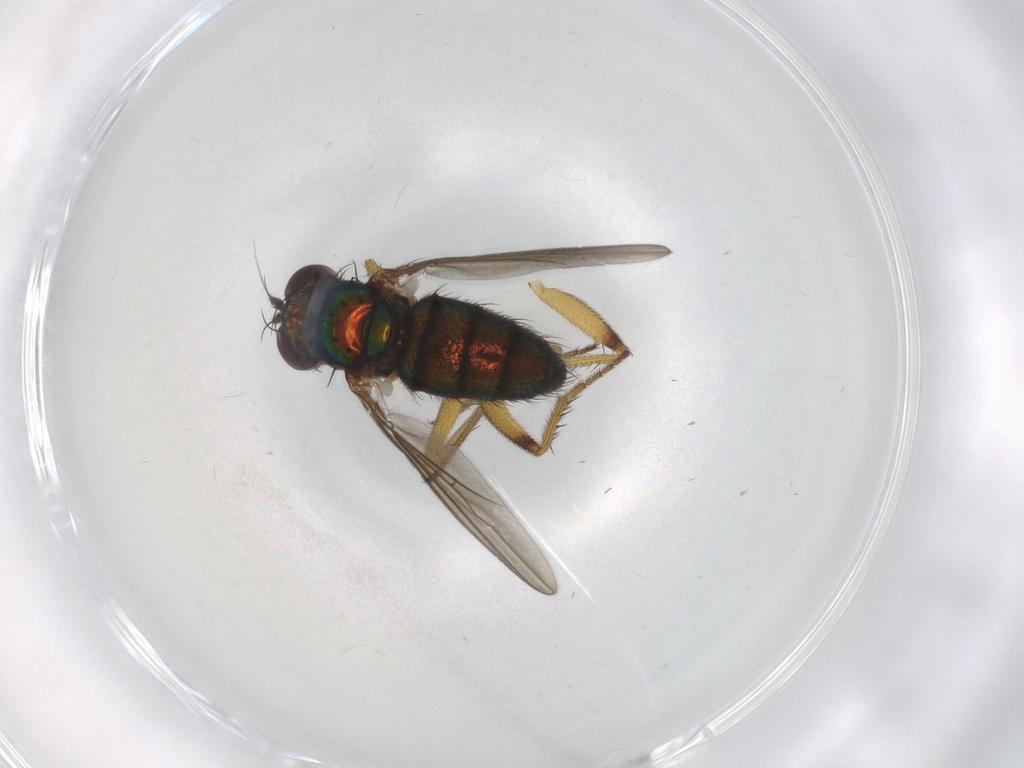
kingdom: Animalia
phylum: Arthropoda
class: Insecta
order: Diptera
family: Dolichopodidae
